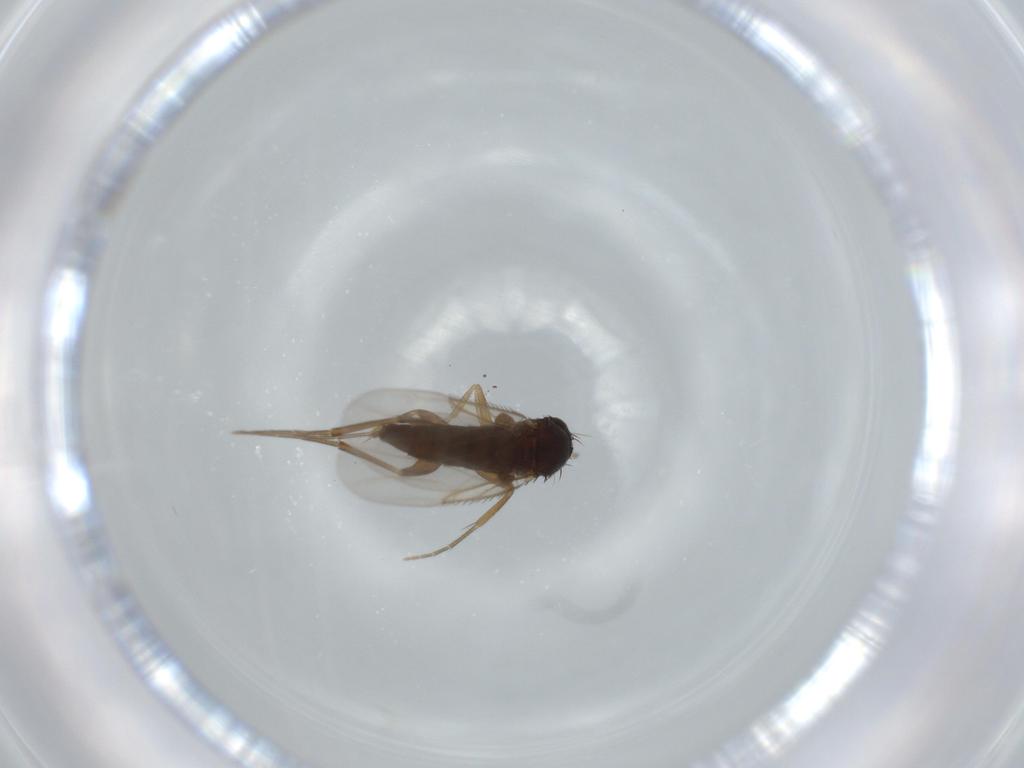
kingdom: Animalia
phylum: Arthropoda
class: Insecta
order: Diptera
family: Phoridae
